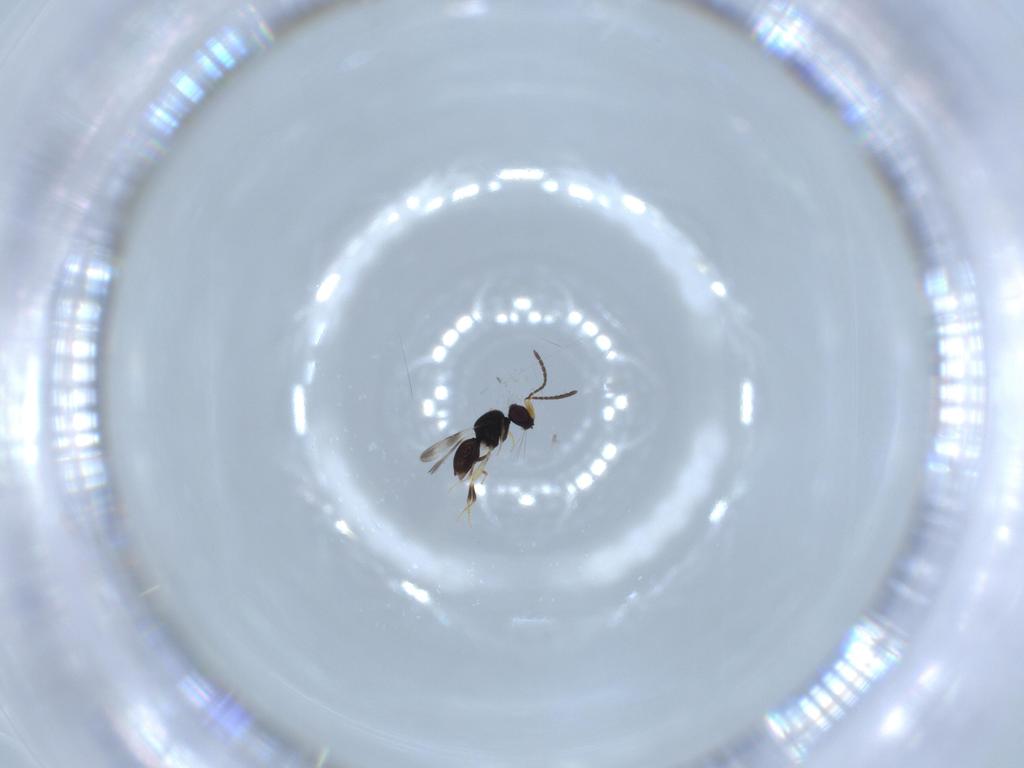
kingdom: Animalia
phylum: Arthropoda
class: Insecta
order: Hymenoptera
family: Ceraphronidae
